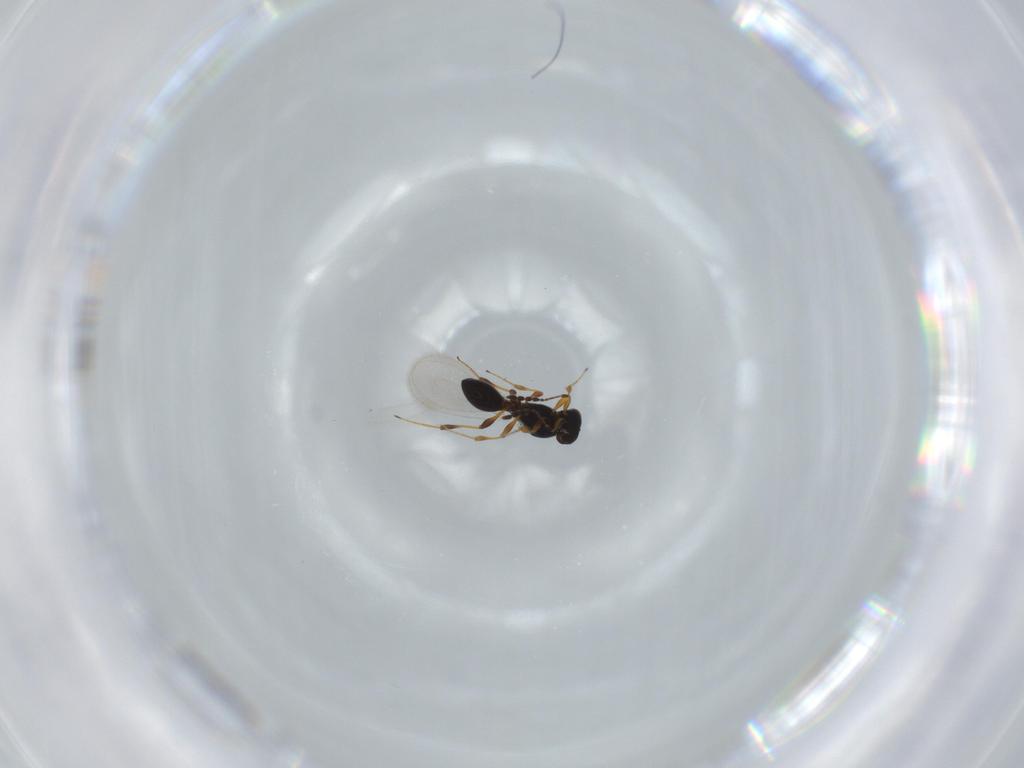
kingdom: Animalia
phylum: Arthropoda
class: Insecta
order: Hymenoptera
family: Platygastridae
